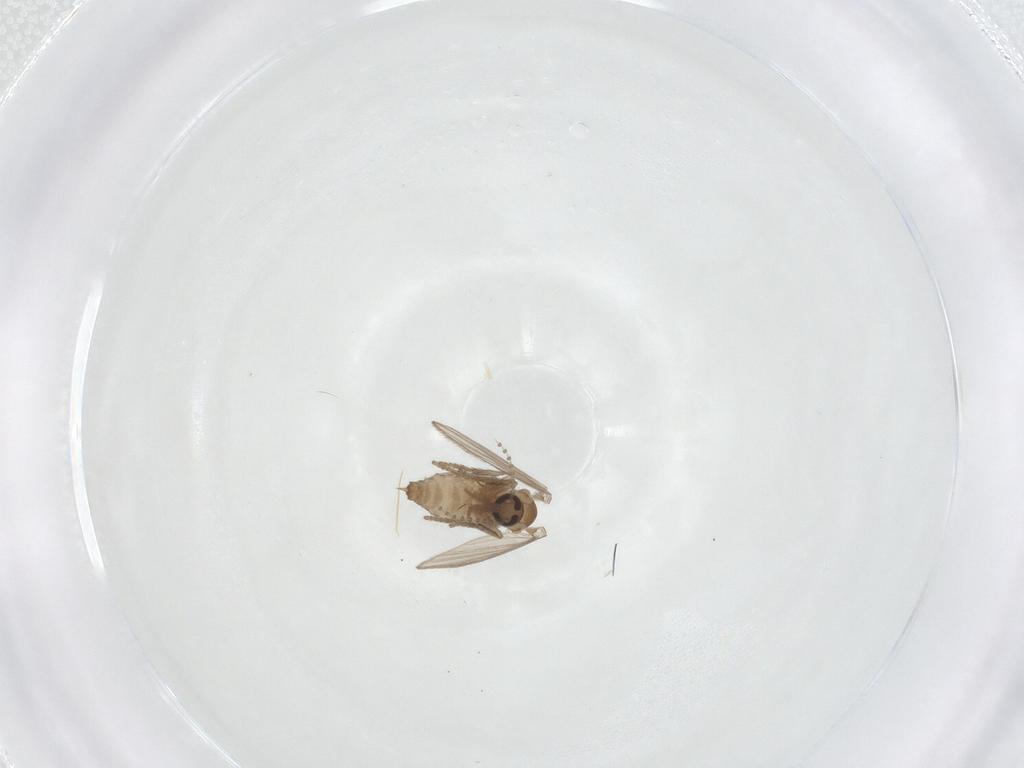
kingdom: Animalia
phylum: Arthropoda
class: Insecta
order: Diptera
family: Psychodidae
